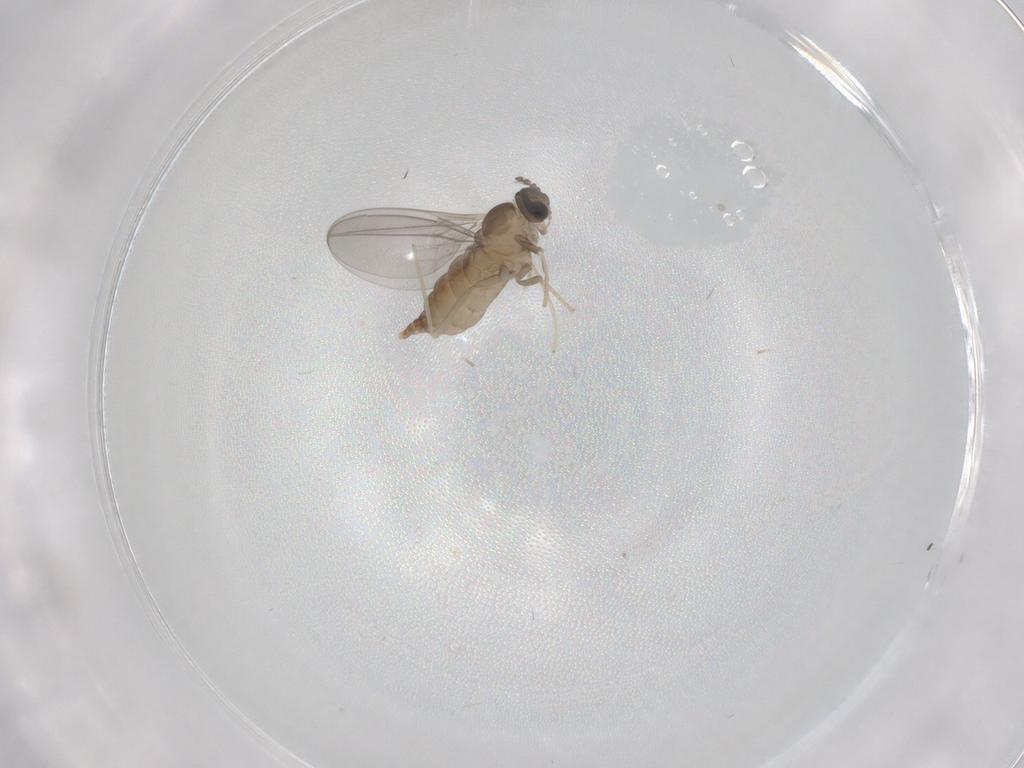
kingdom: Animalia
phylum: Arthropoda
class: Insecta
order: Diptera
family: Cecidomyiidae
